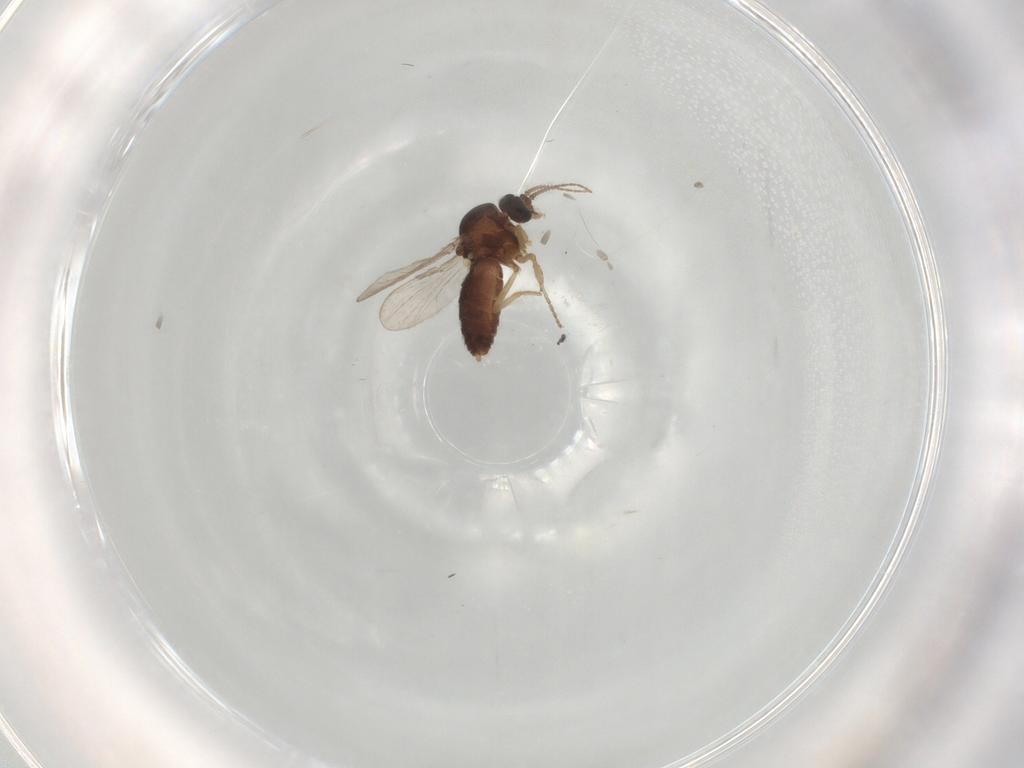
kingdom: Animalia
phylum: Arthropoda
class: Insecta
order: Diptera
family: Ceratopogonidae
